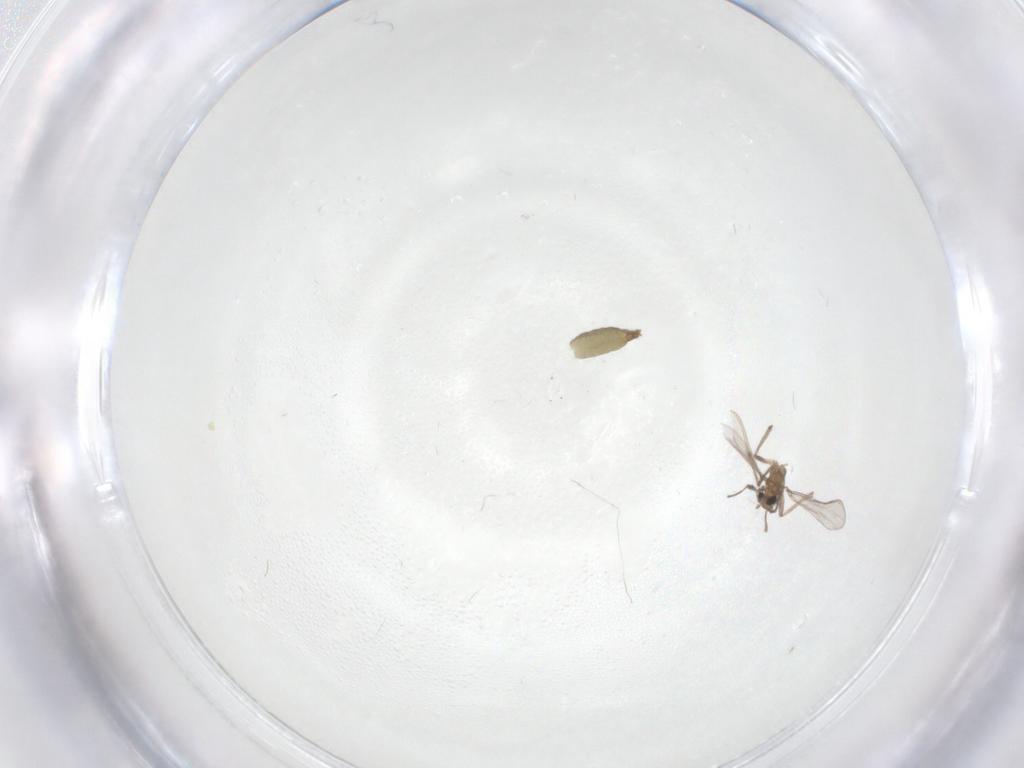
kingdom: Animalia
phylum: Arthropoda
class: Insecta
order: Diptera
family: Chironomidae
